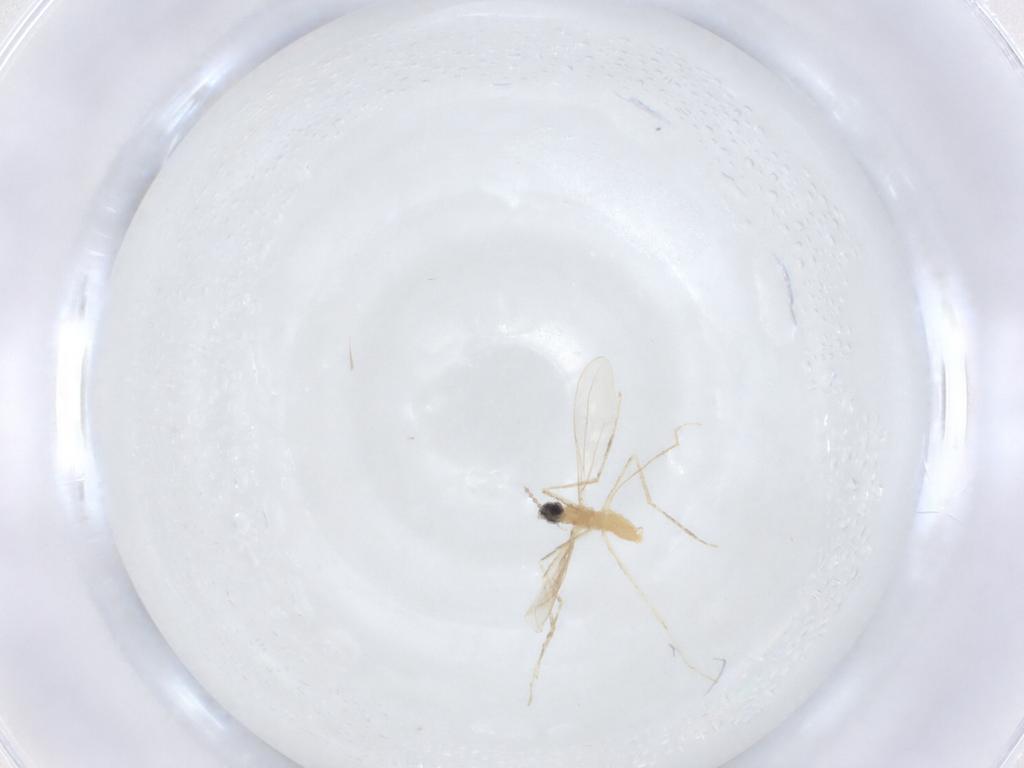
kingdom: Animalia
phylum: Arthropoda
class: Insecta
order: Diptera
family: Cecidomyiidae
